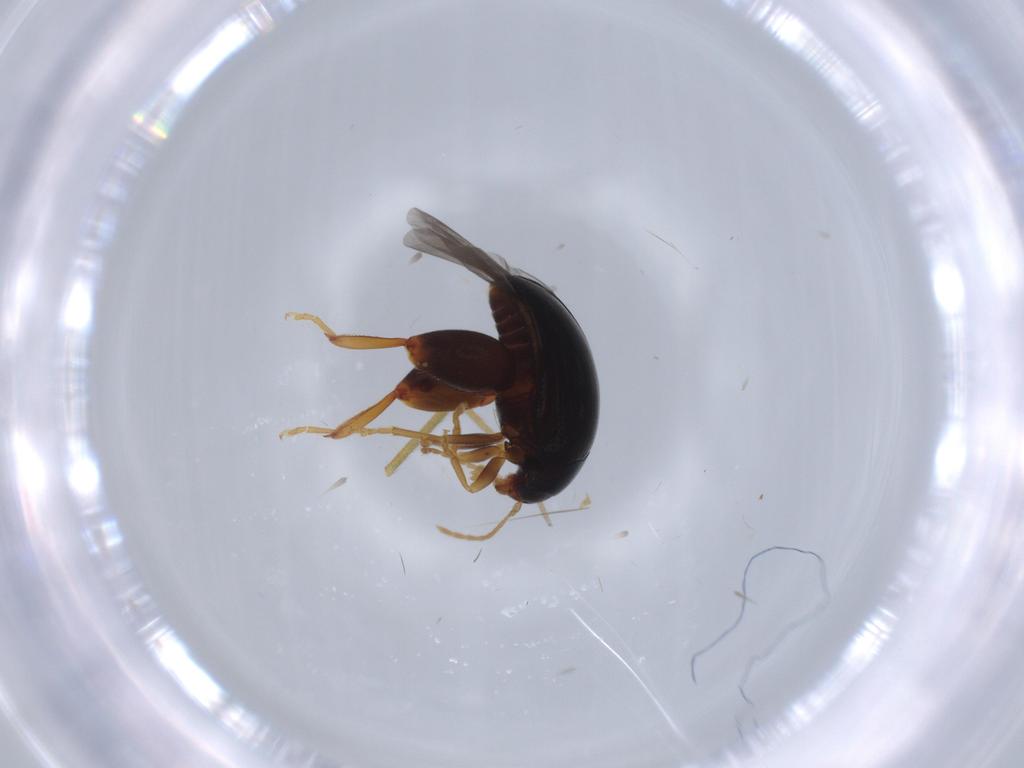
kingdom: Animalia
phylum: Arthropoda
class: Insecta
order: Coleoptera
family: Chrysomelidae
